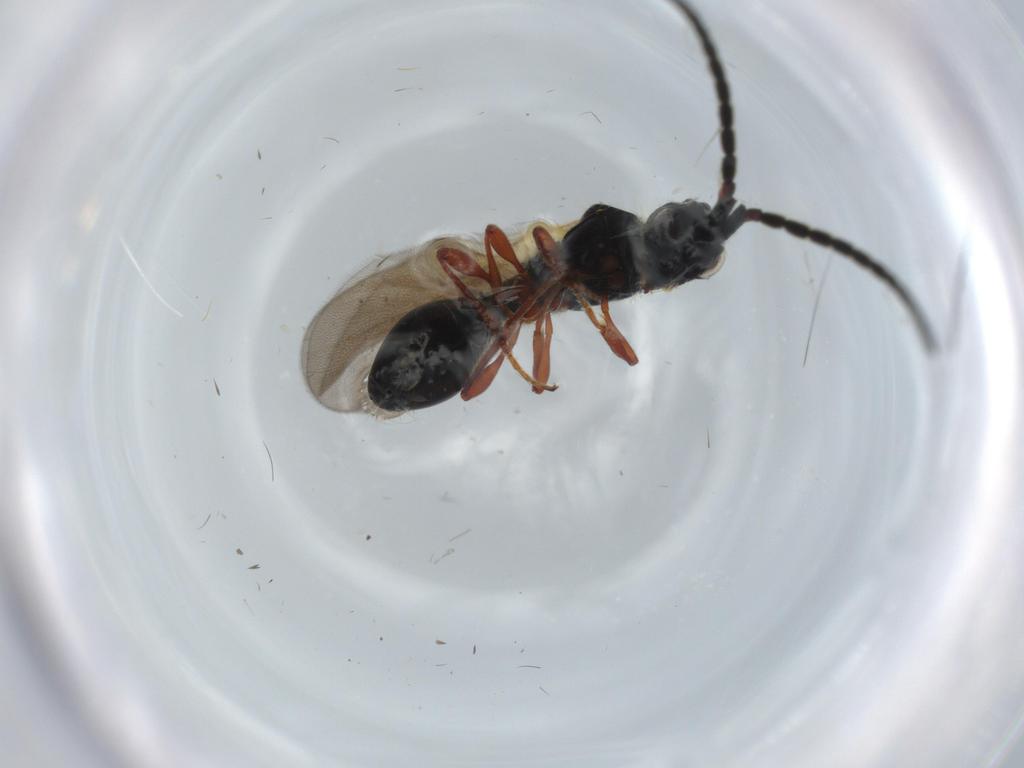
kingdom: Animalia
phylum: Arthropoda
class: Insecta
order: Hymenoptera
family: Diapriidae
